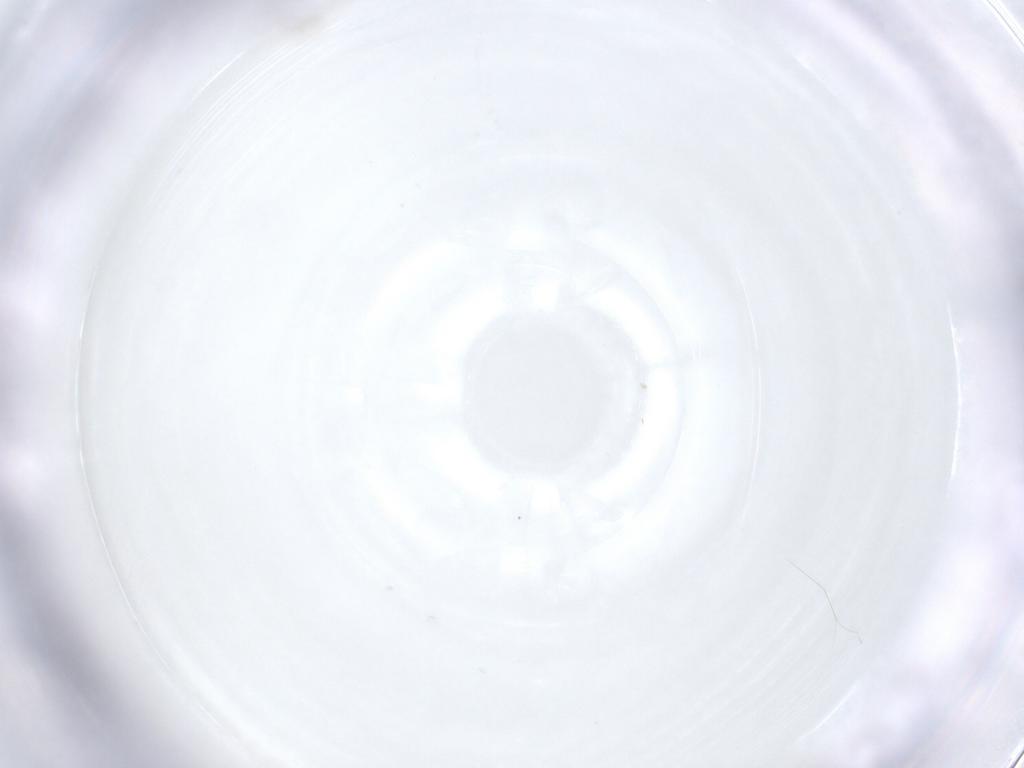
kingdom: Animalia
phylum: Arthropoda
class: Arachnida
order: Trombidiformes
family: Erythraeidae
